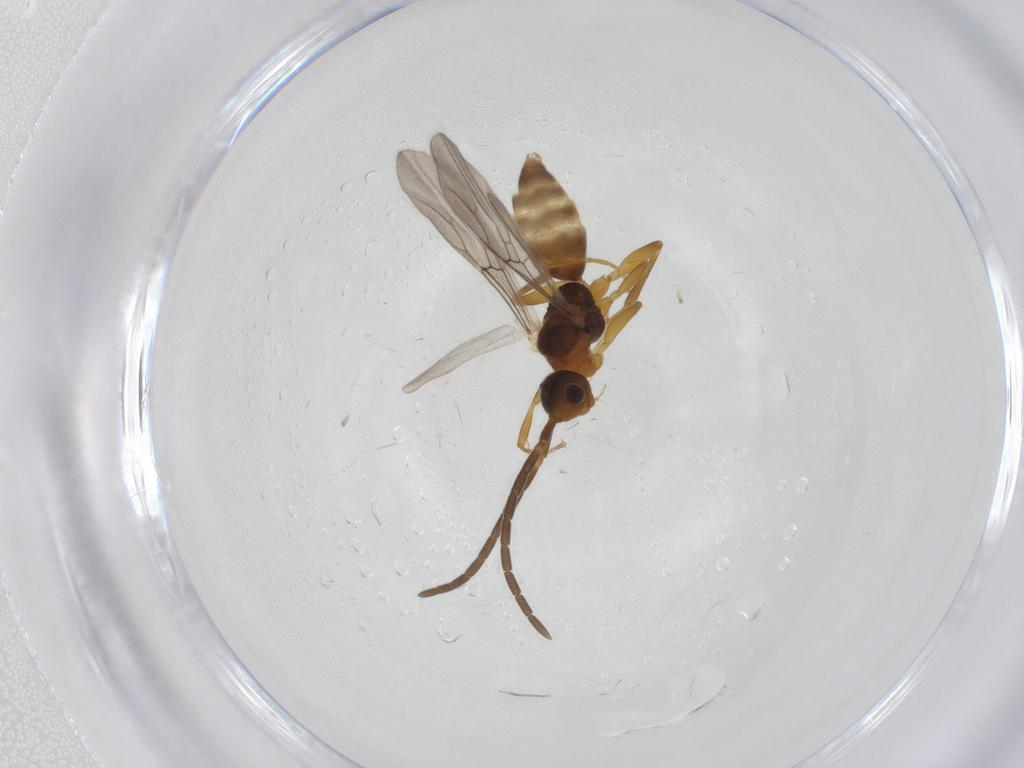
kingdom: Animalia
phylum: Arthropoda
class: Insecta
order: Hymenoptera
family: Embolemidae
